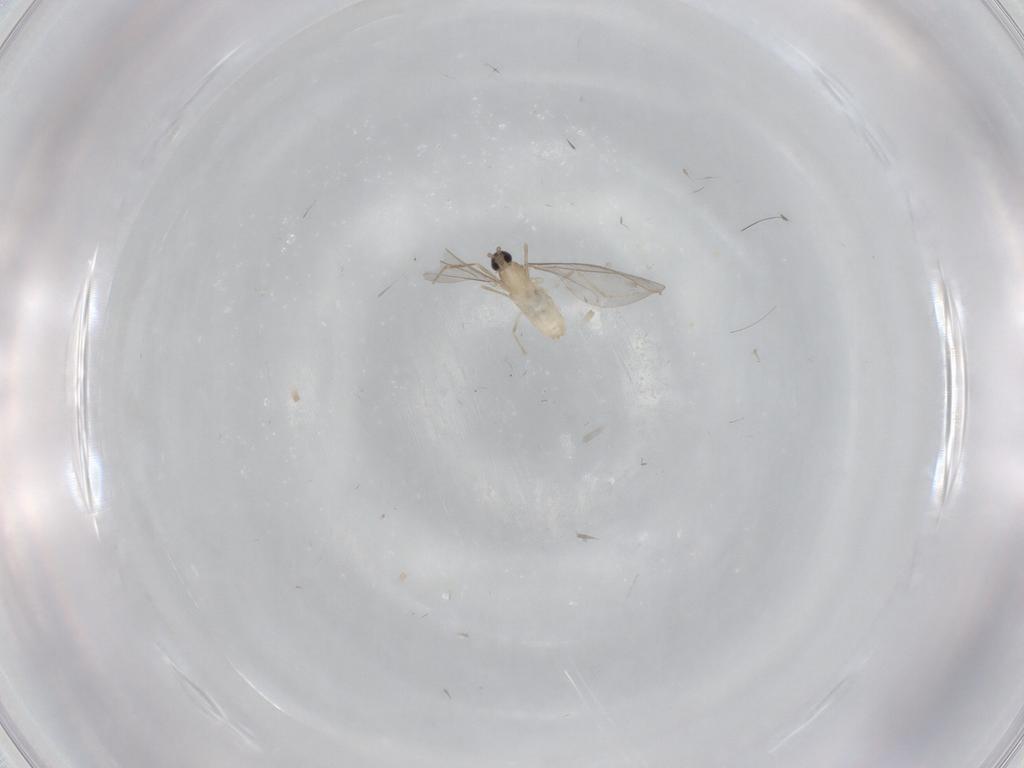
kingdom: Animalia
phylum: Arthropoda
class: Insecta
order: Diptera
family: Cecidomyiidae
